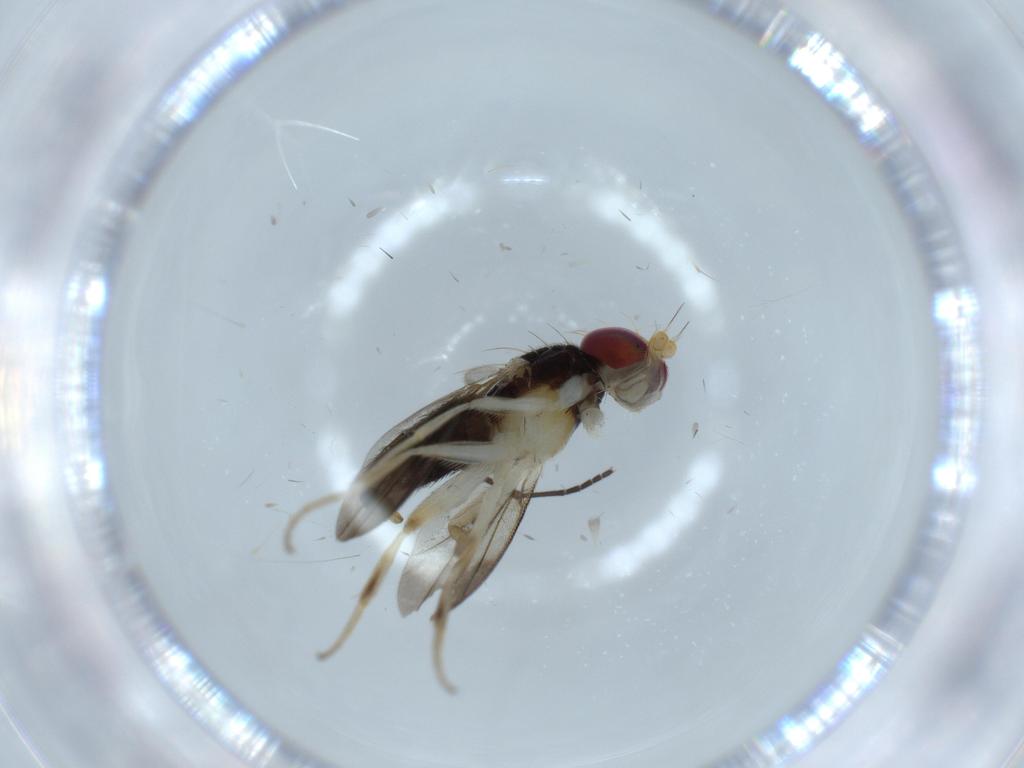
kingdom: Animalia
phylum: Arthropoda
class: Insecta
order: Diptera
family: Clusiidae
